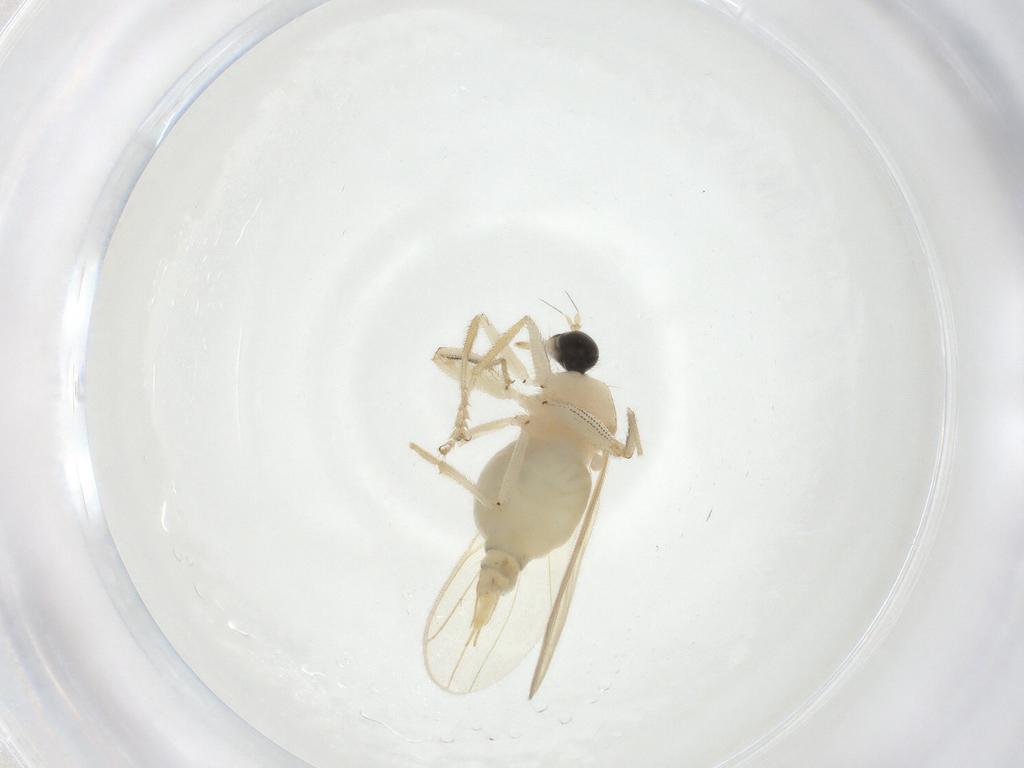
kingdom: Animalia
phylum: Arthropoda
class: Insecta
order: Diptera
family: Hybotidae
